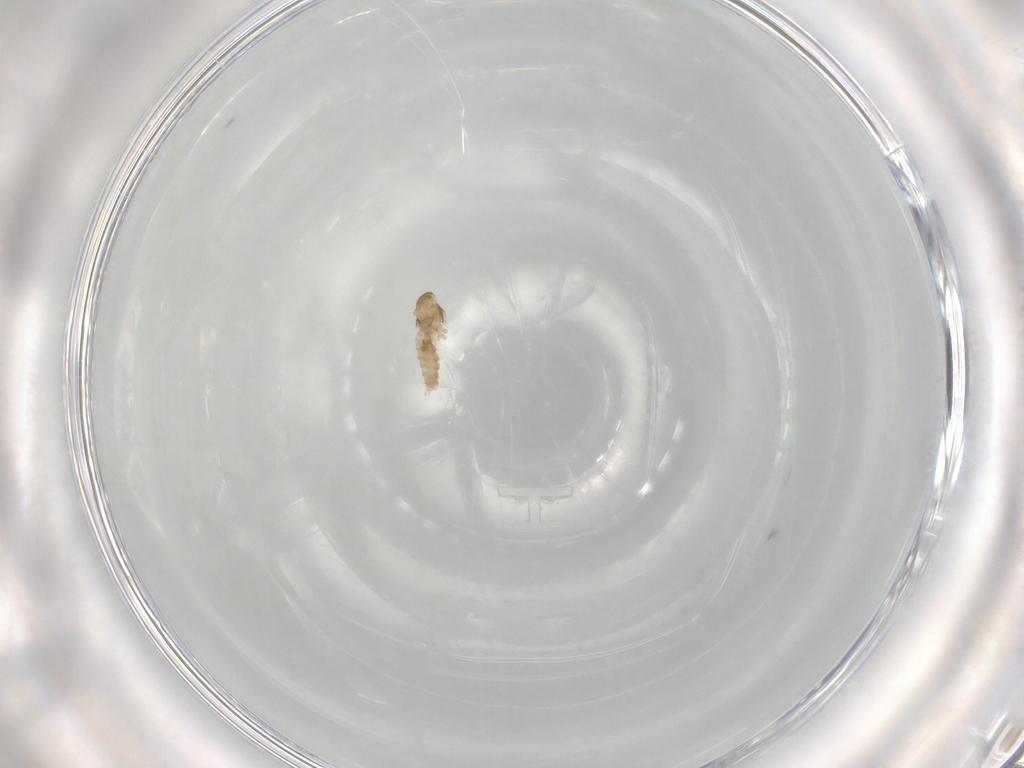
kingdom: Animalia
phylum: Arthropoda
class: Insecta
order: Diptera
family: Cecidomyiidae
